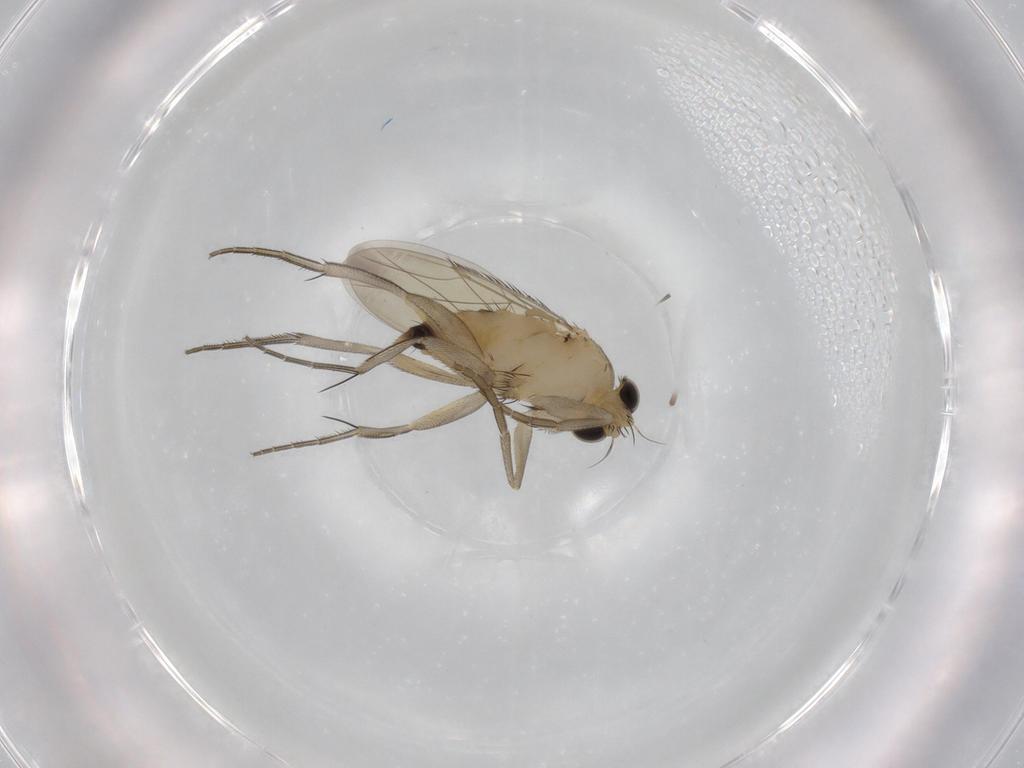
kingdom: Animalia
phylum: Arthropoda
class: Insecta
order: Diptera
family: Phoridae
